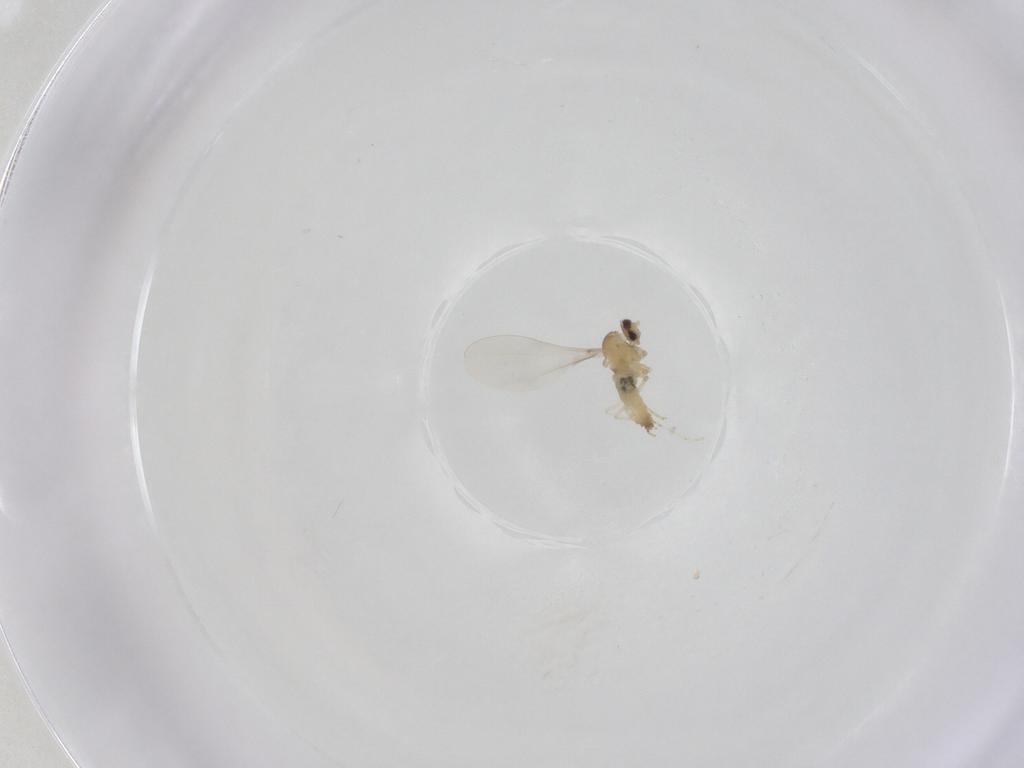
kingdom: Animalia
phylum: Arthropoda
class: Insecta
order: Diptera
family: Cecidomyiidae
